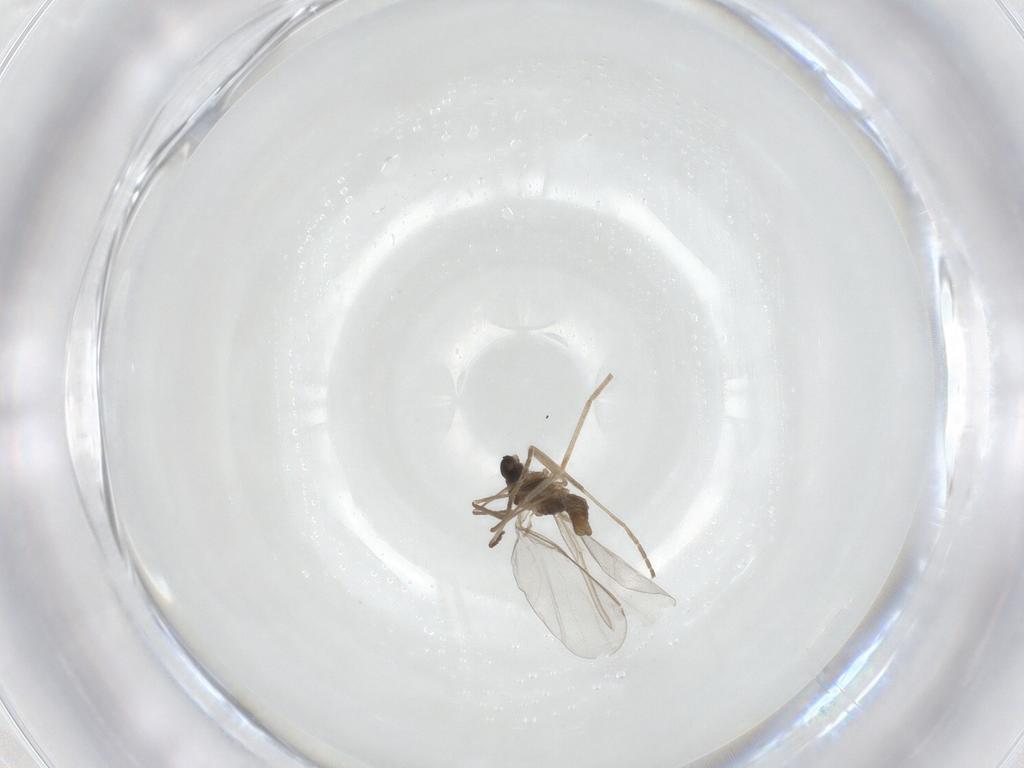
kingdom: Animalia
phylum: Arthropoda
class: Insecta
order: Diptera
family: Cecidomyiidae
